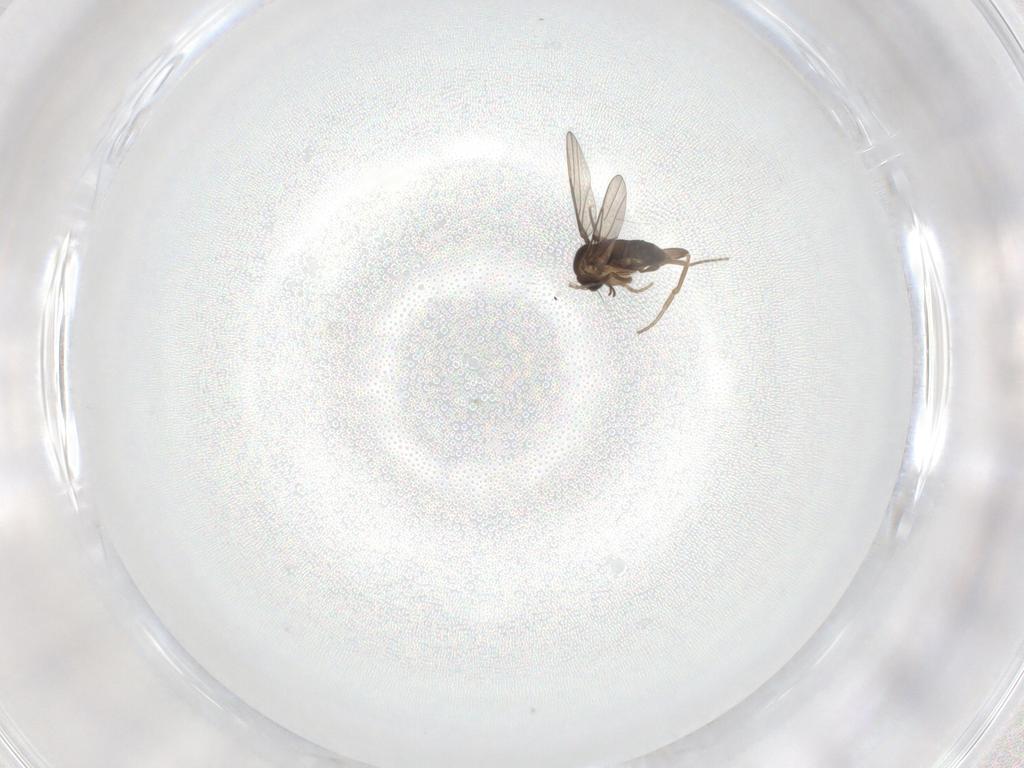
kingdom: Animalia
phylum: Arthropoda
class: Insecta
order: Diptera
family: Muscidae
